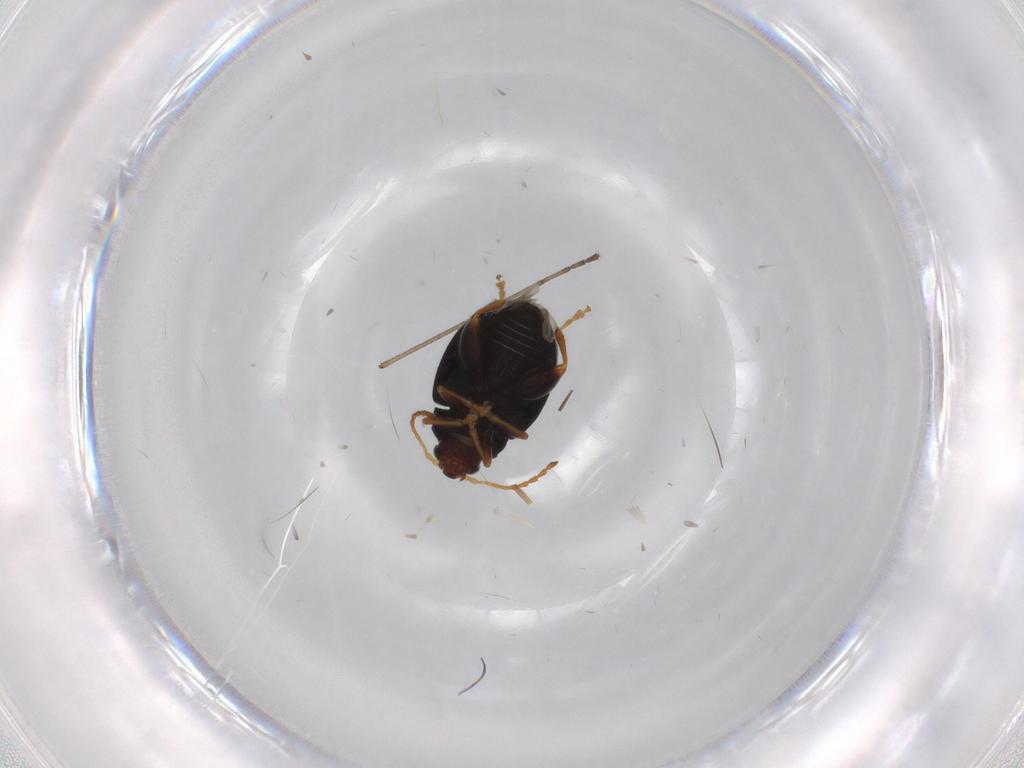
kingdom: Animalia
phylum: Arthropoda
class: Insecta
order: Coleoptera
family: Chrysomelidae
